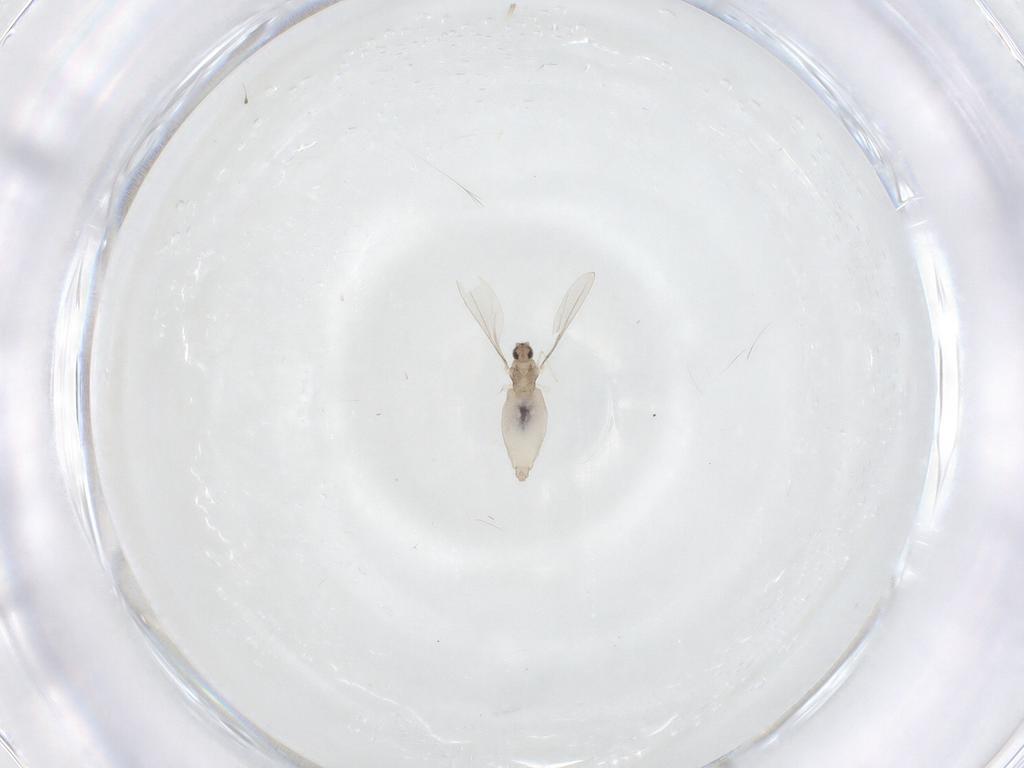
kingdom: Animalia
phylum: Arthropoda
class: Insecta
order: Diptera
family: Cecidomyiidae
